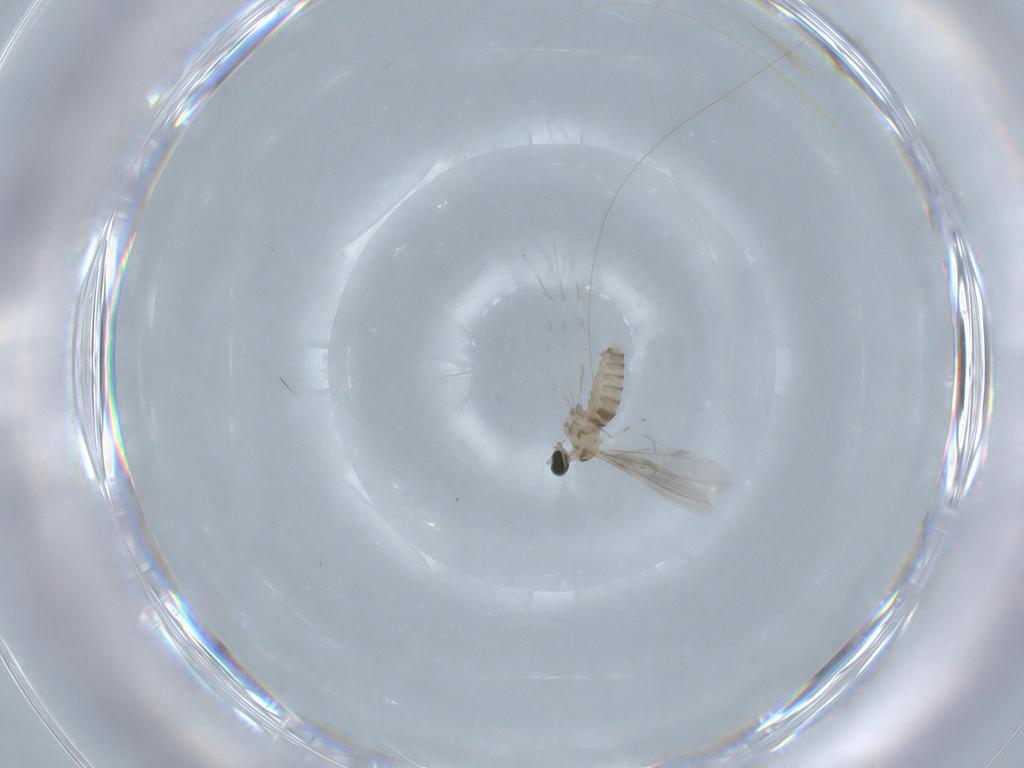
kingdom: Animalia
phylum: Arthropoda
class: Insecta
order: Diptera
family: Cecidomyiidae
